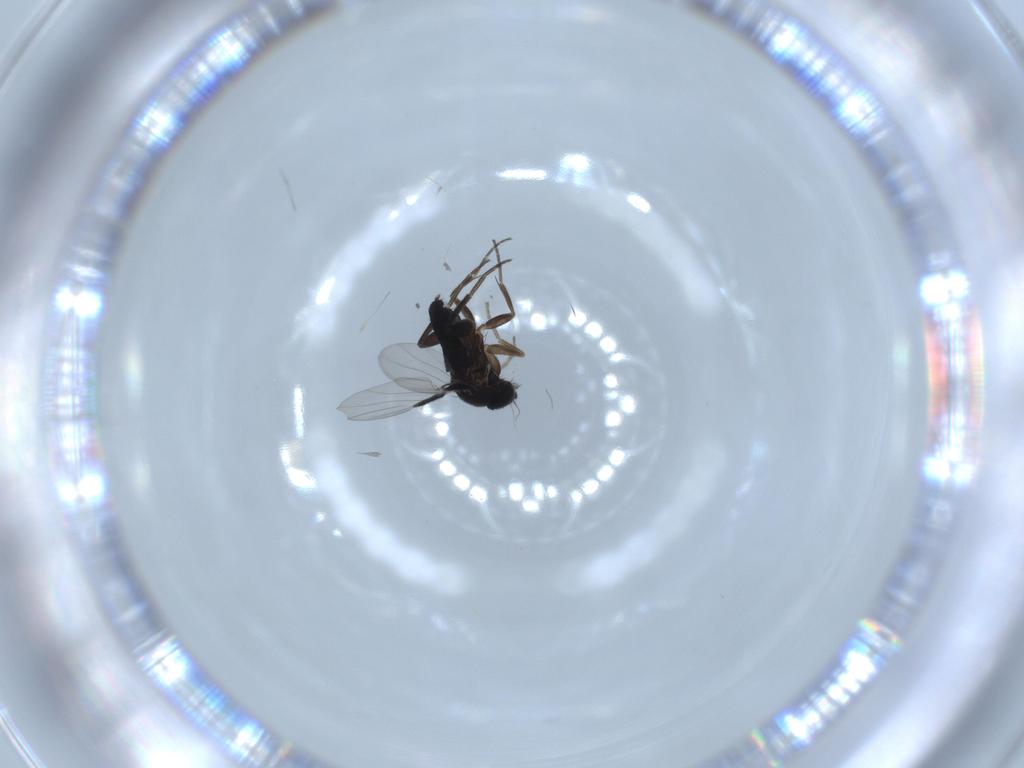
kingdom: Animalia
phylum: Arthropoda
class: Insecta
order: Diptera
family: Phoridae
